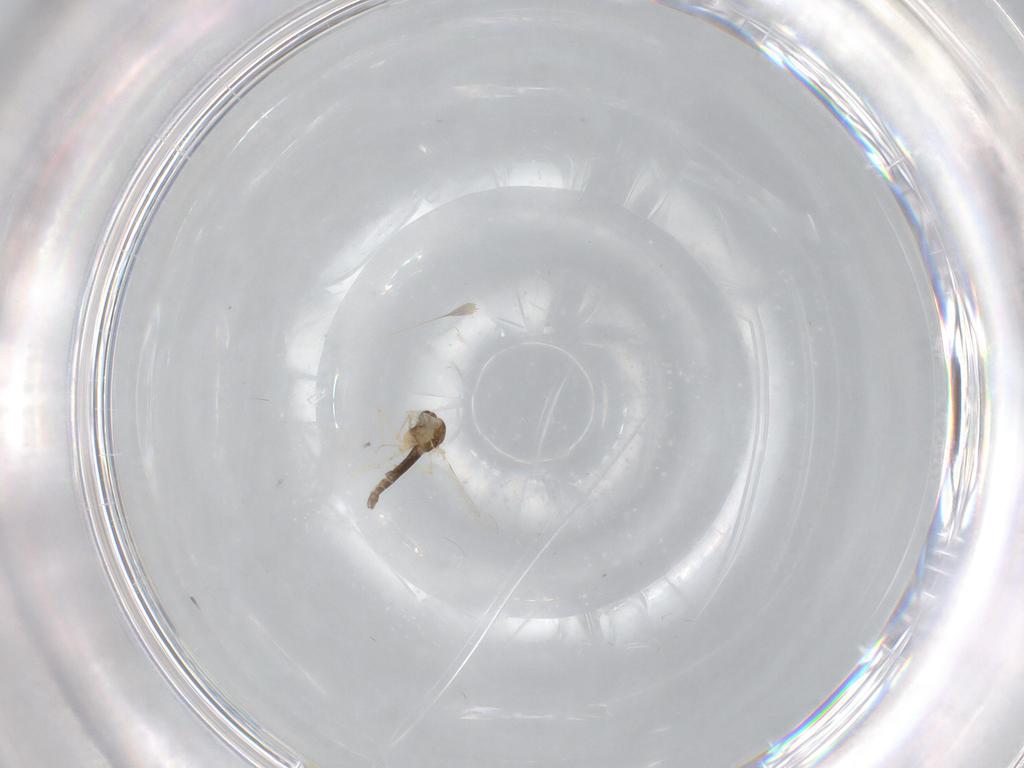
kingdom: Animalia
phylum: Arthropoda
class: Insecta
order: Diptera
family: Chironomidae
